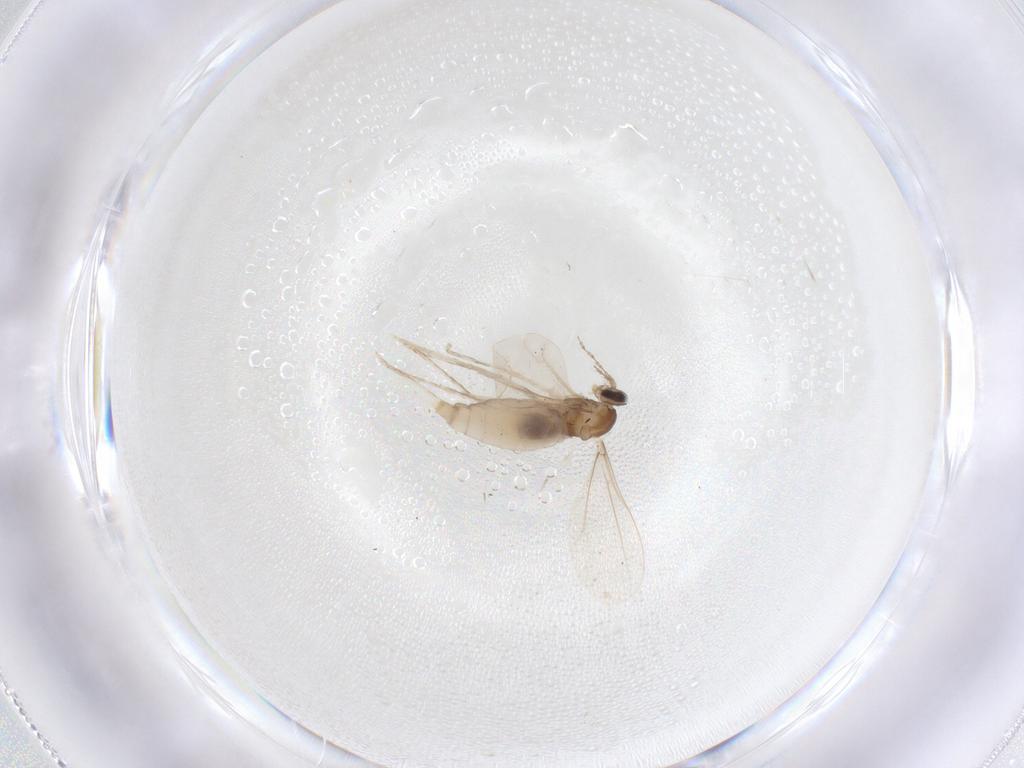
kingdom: Animalia
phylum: Arthropoda
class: Insecta
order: Diptera
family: Cecidomyiidae
